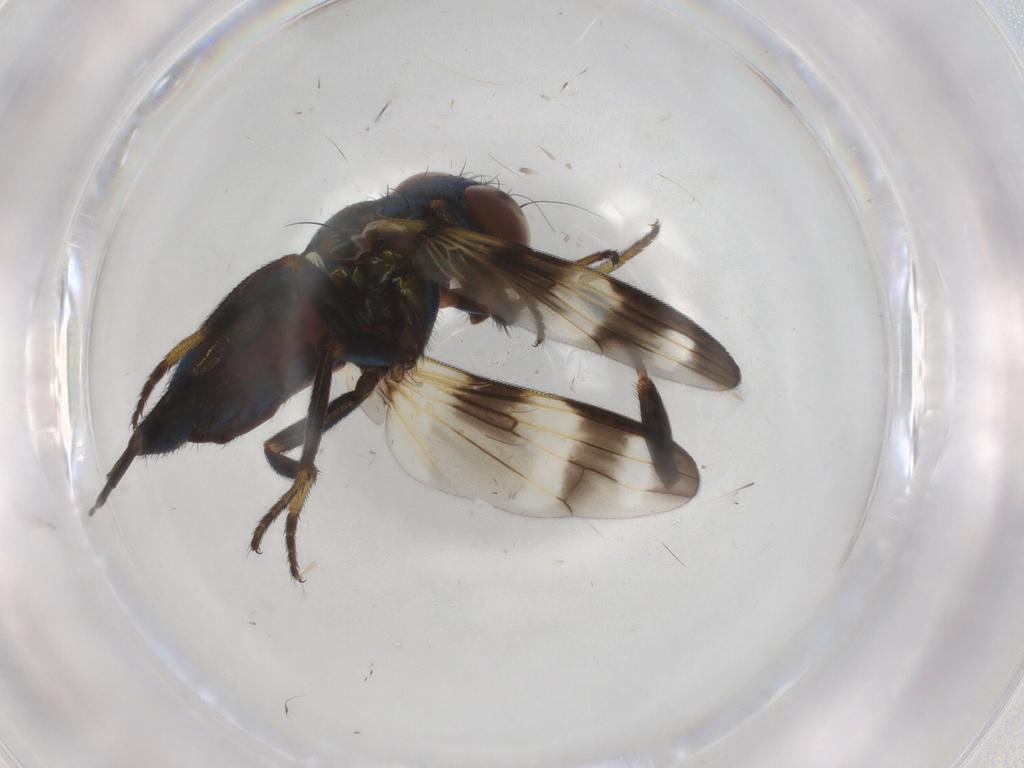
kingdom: Animalia
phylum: Arthropoda
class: Insecta
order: Diptera
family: Ulidiidae
